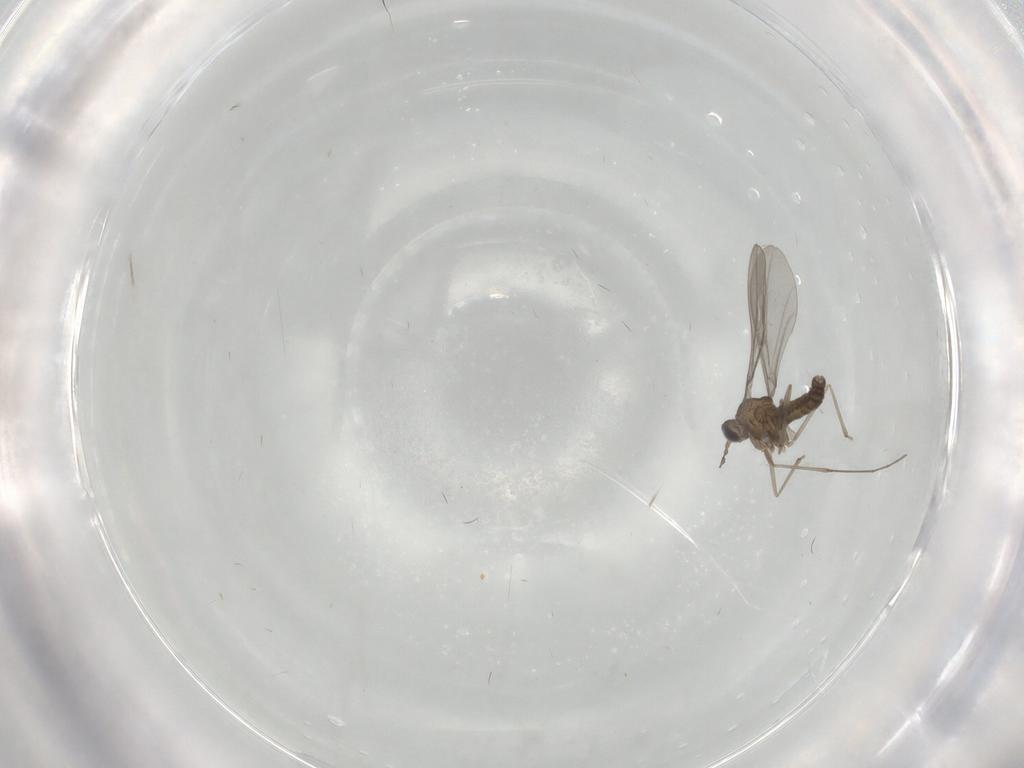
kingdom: Animalia
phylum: Arthropoda
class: Insecta
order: Diptera
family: Cecidomyiidae
